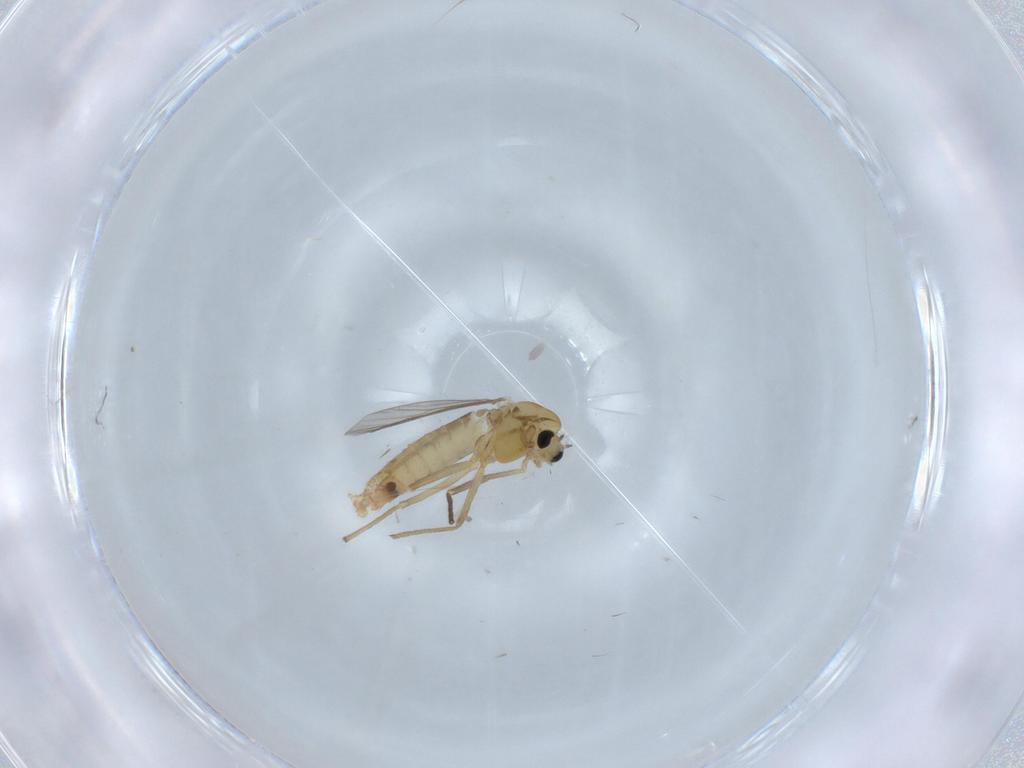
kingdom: Animalia
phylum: Arthropoda
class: Insecta
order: Diptera
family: Chironomidae
